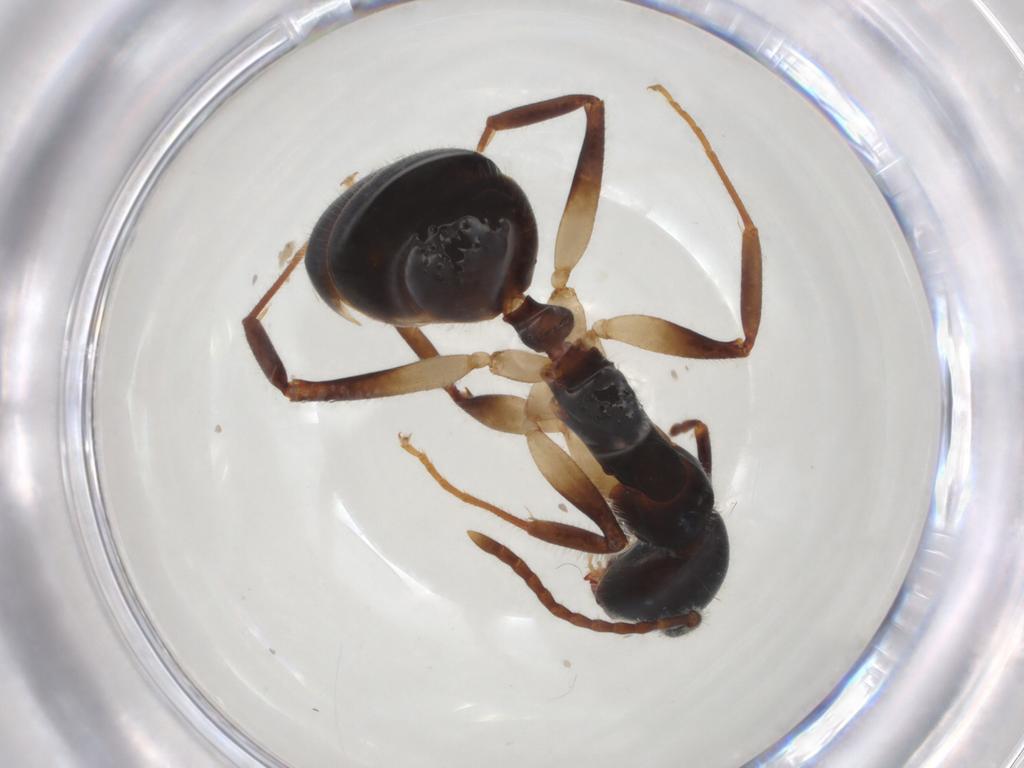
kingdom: Animalia
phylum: Arthropoda
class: Insecta
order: Hymenoptera
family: Formicidae
